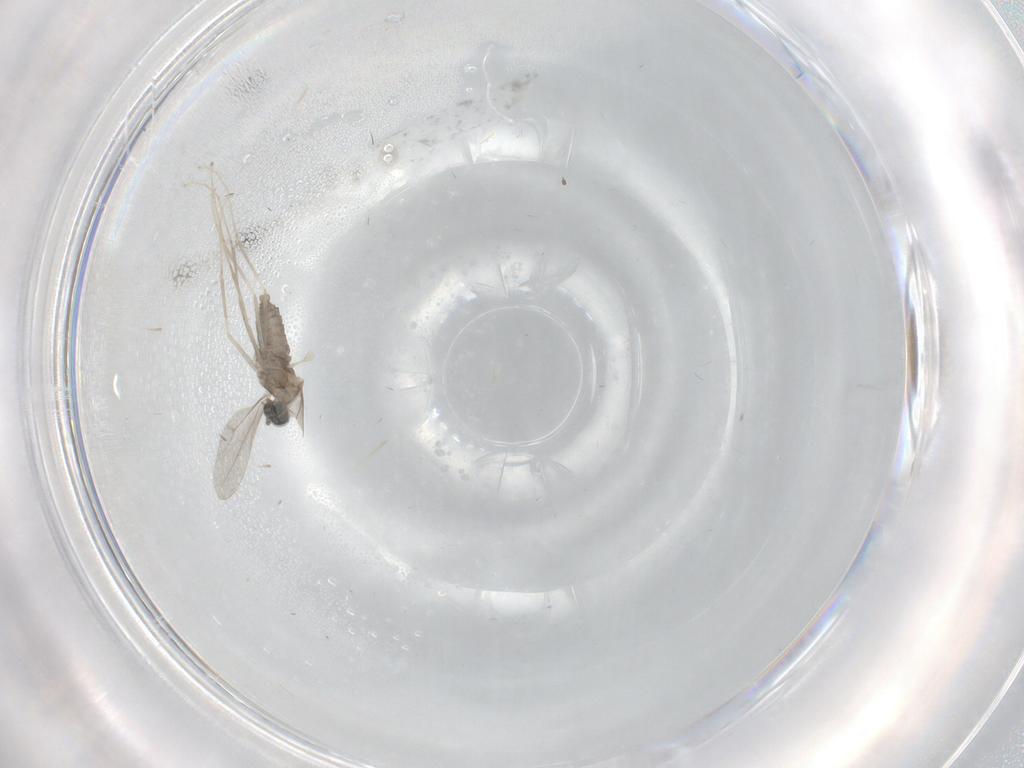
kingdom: Animalia
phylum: Arthropoda
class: Insecta
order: Diptera
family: Cecidomyiidae
